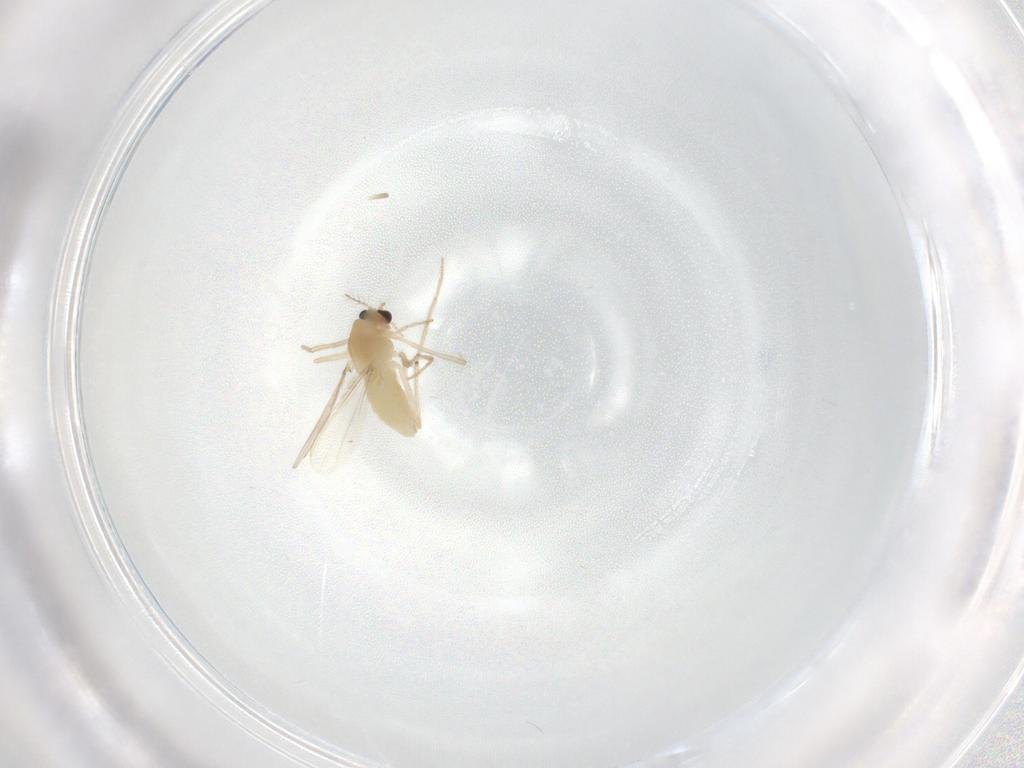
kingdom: Animalia
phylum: Arthropoda
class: Insecta
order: Diptera
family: Chironomidae
